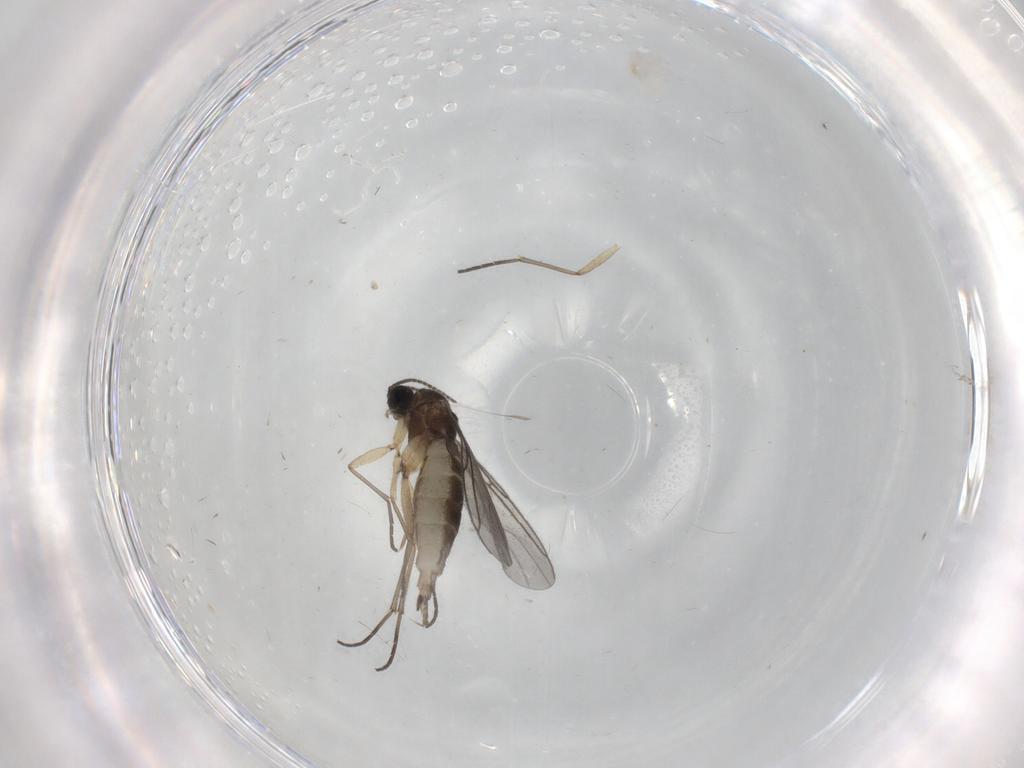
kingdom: Animalia
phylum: Arthropoda
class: Insecta
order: Diptera
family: Sciaridae
